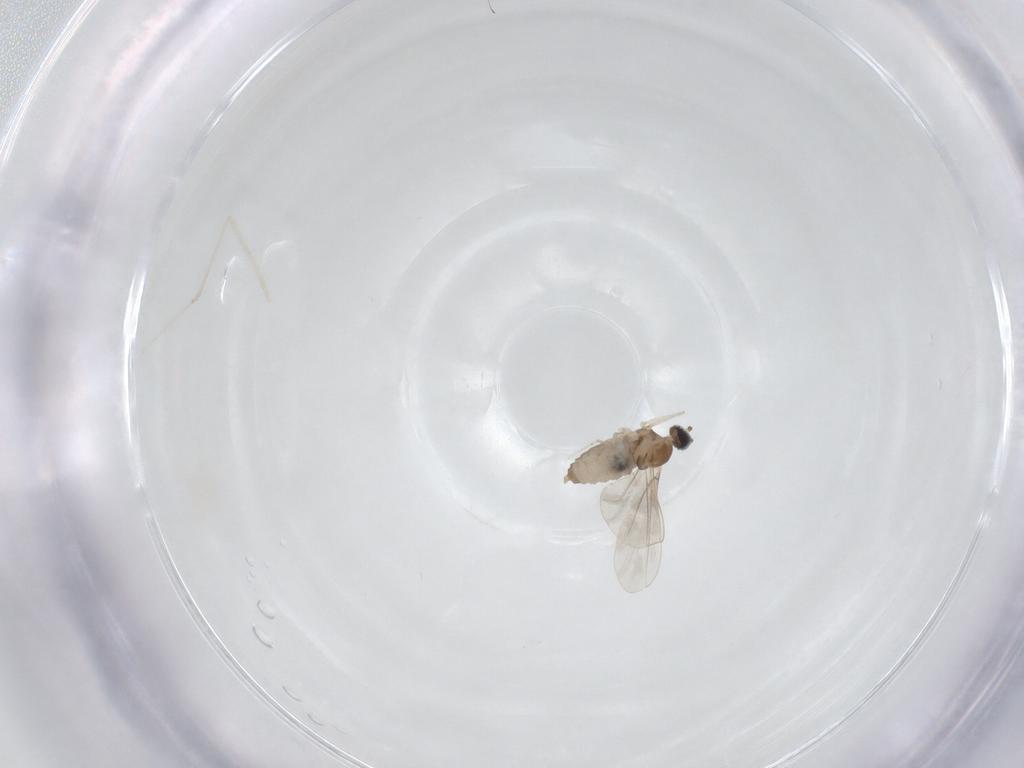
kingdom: Animalia
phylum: Arthropoda
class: Insecta
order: Diptera
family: Cecidomyiidae
